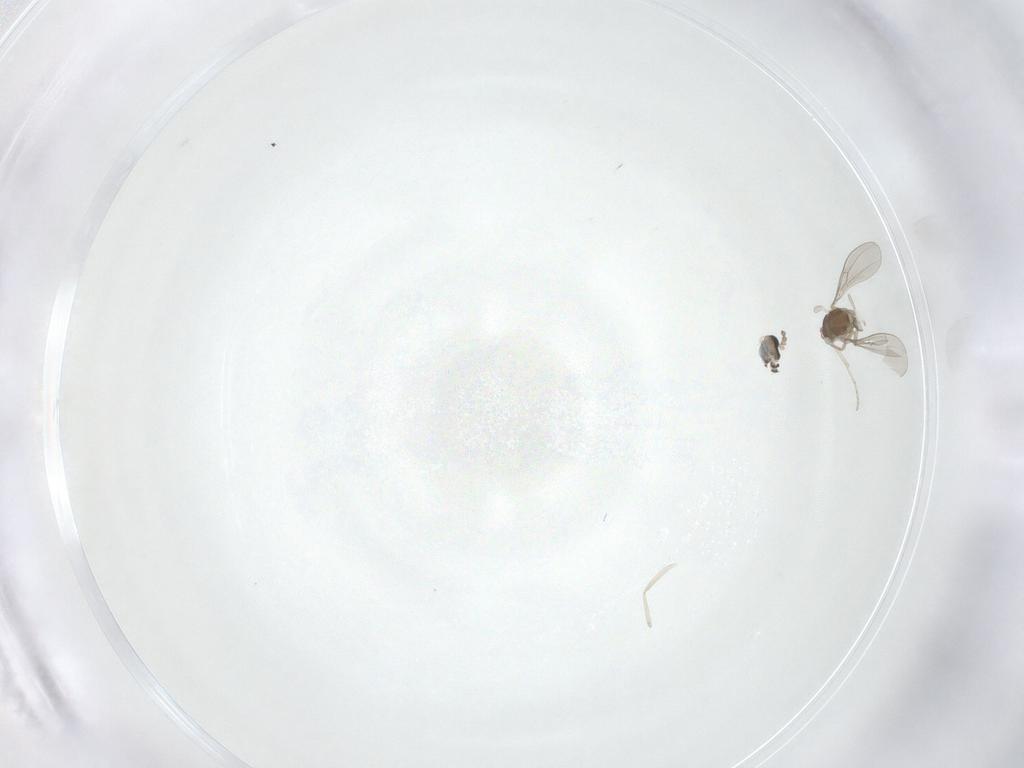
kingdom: Animalia
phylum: Arthropoda
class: Insecta
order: Diptera
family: Cecidomyiidae
